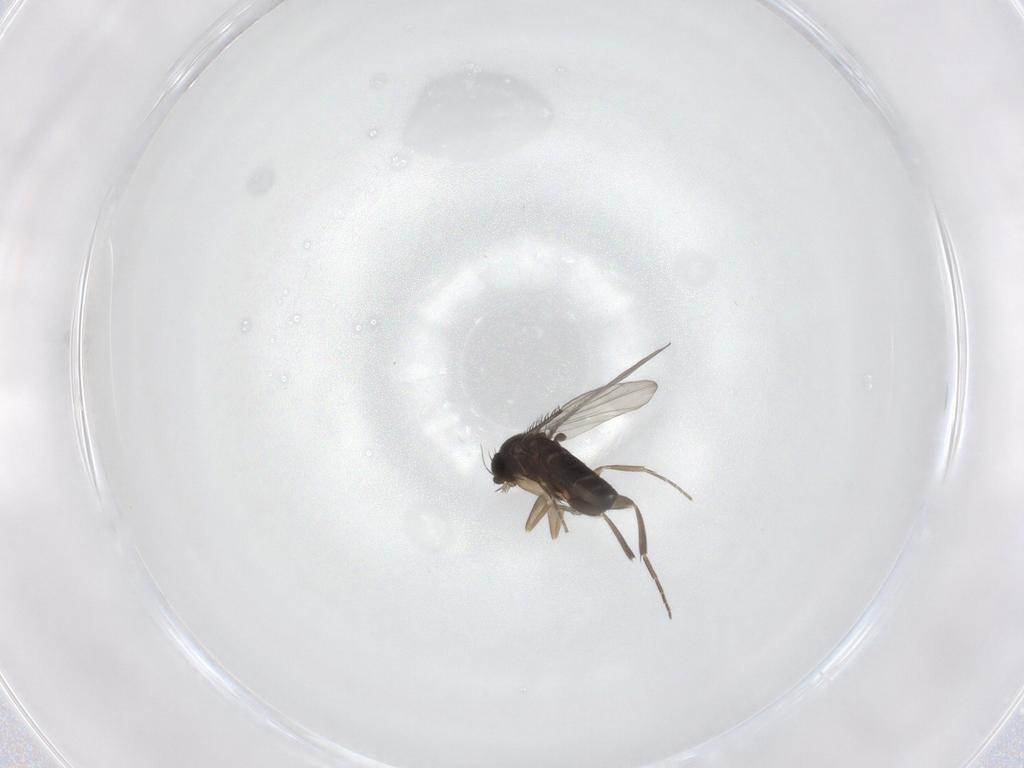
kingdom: Animalia
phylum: Arthropoda
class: Insecta
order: Diptera
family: Phoridae
